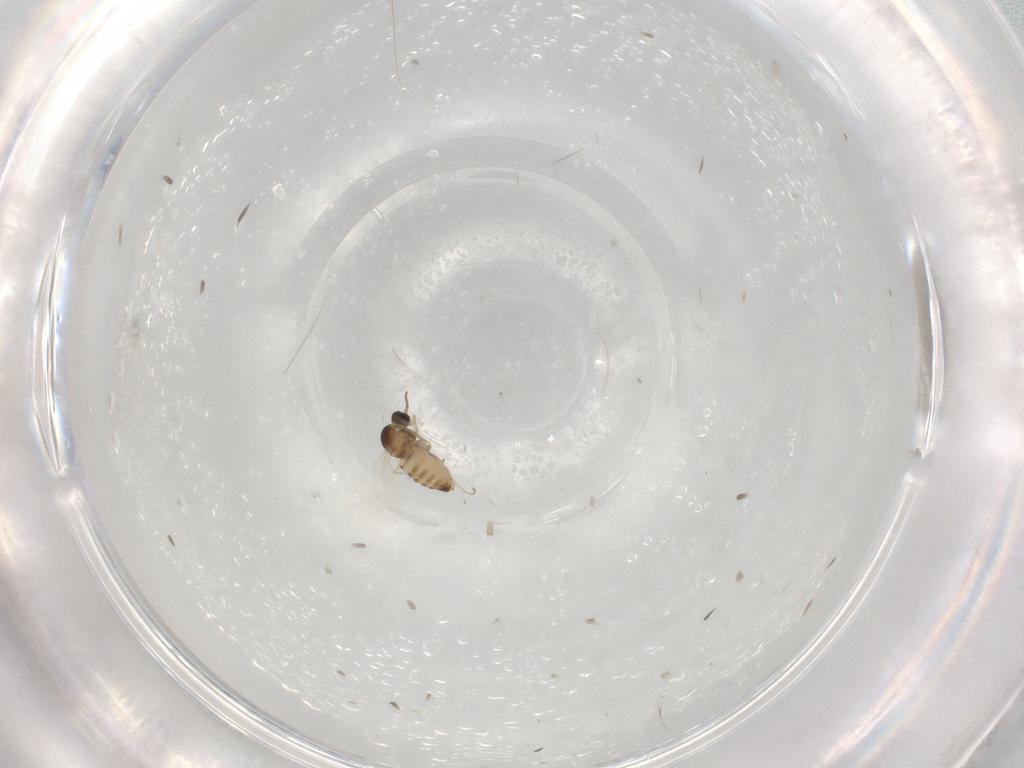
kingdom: Animalia
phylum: Arthropoda
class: Insecta
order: Diptera
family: Cecidomyiidae
